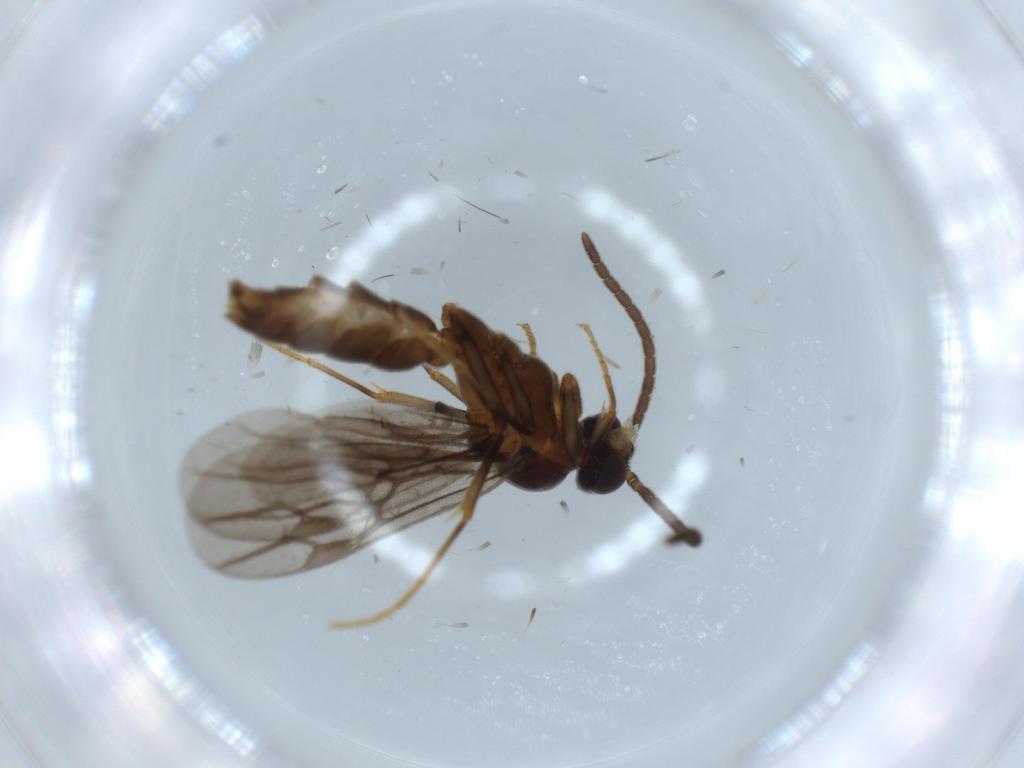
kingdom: Animalia
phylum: Arthropoda
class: Insecta
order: Hymenoptera
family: Formicidae
